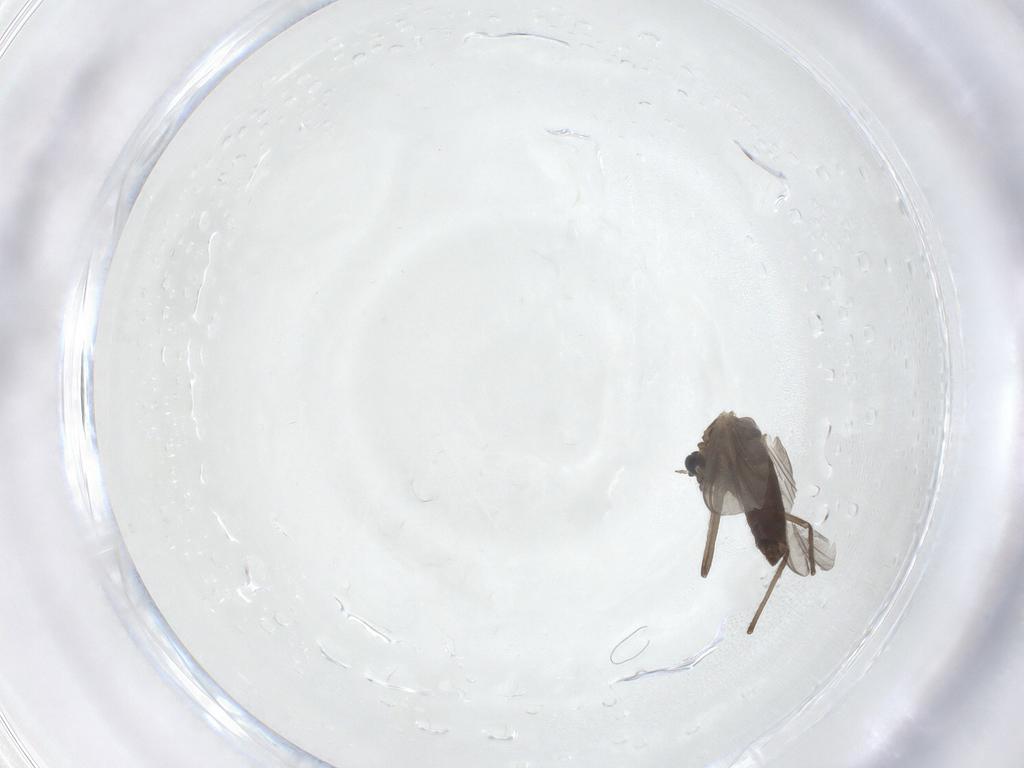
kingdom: Animalia
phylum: Arthropoda
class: Insecta
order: Diptera
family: Chironomidae
